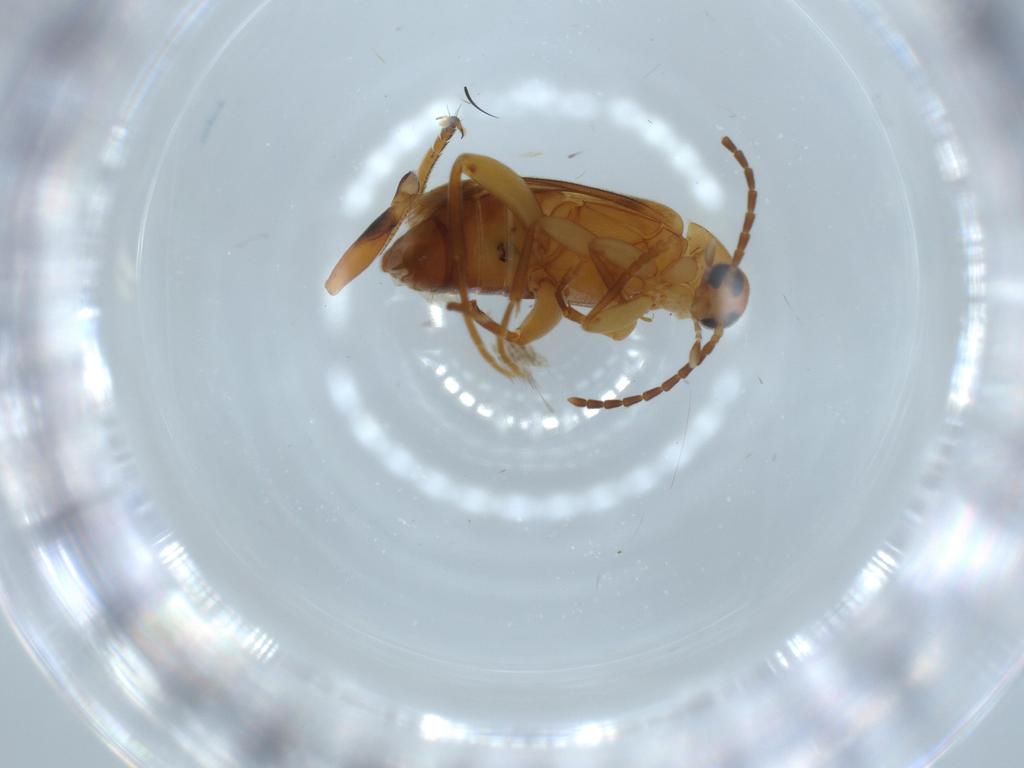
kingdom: Animalia
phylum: Arthropoda
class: Insecta
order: Coleoptera
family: Scraptiidae
